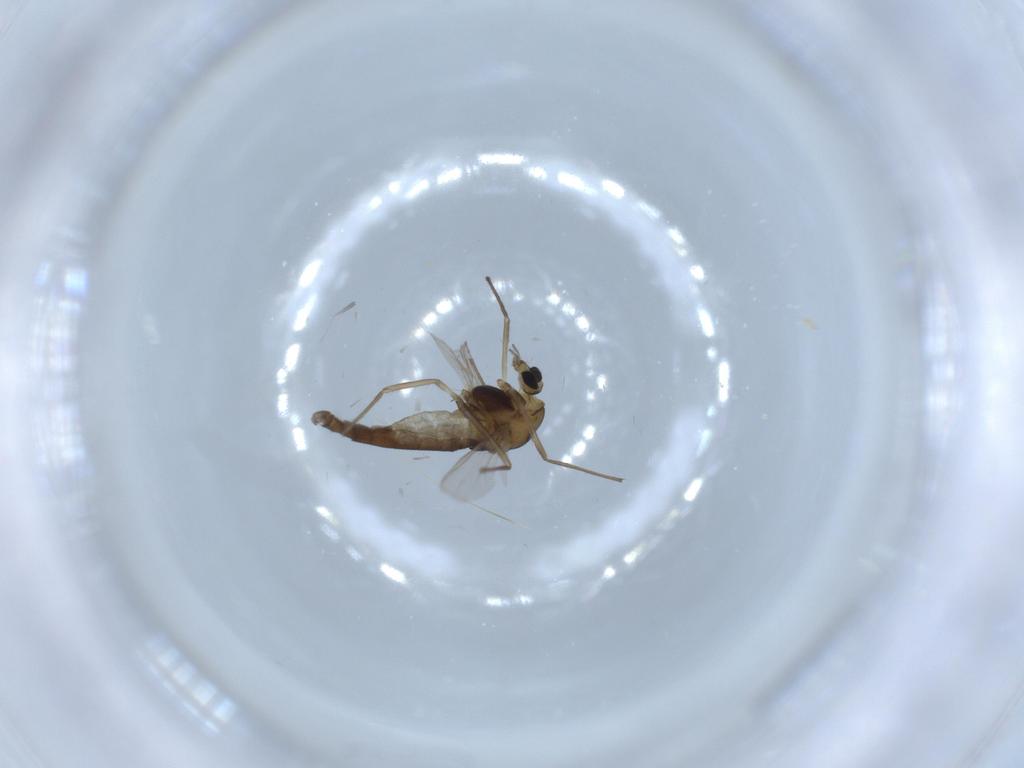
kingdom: Animalia
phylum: Arthropoda
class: Insecta
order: Diptera
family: Chironomidae
